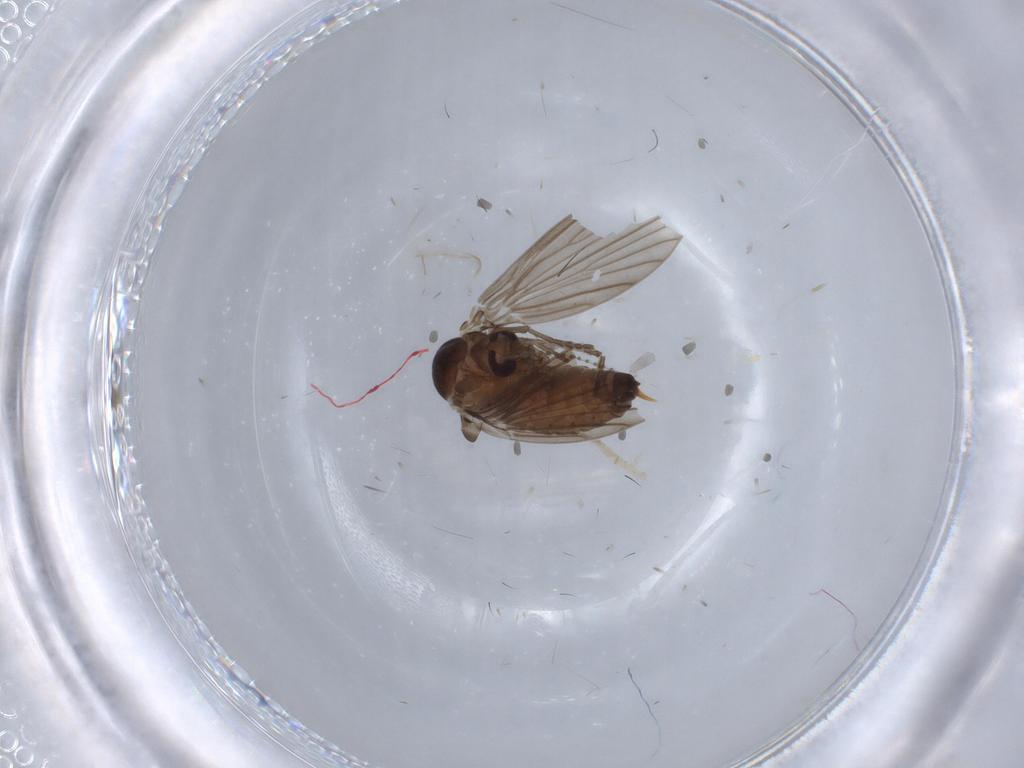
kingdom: Animalia
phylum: Arthropoda
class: Insecta
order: Diptera
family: Psychodidae
